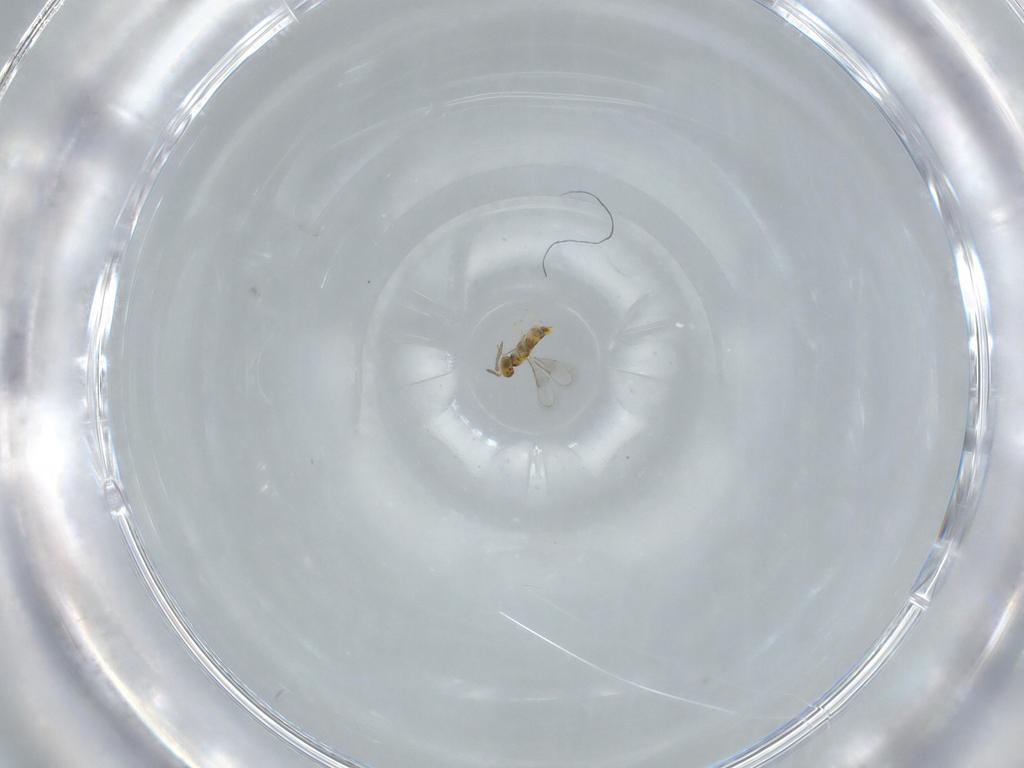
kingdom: Animalia
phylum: Arthropoda
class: Insecta
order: Hymenoptera
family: Aphelinidae
